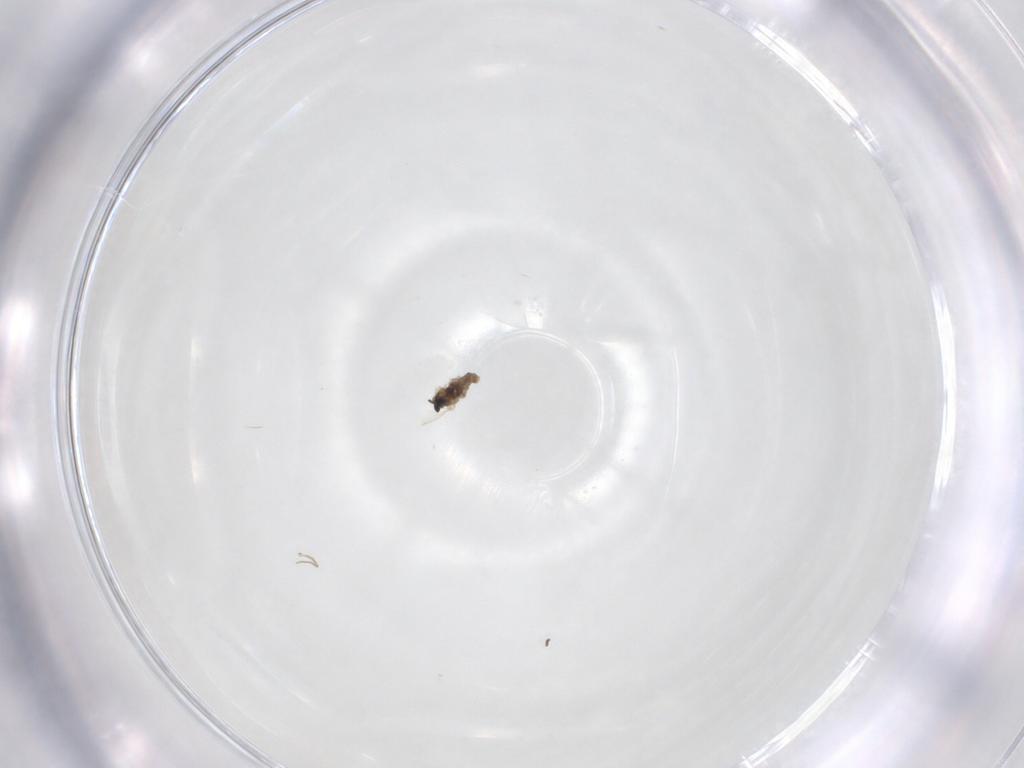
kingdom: Animalia
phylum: Arthropoda
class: Insecta
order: Diptera
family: Cecidomyiidae
